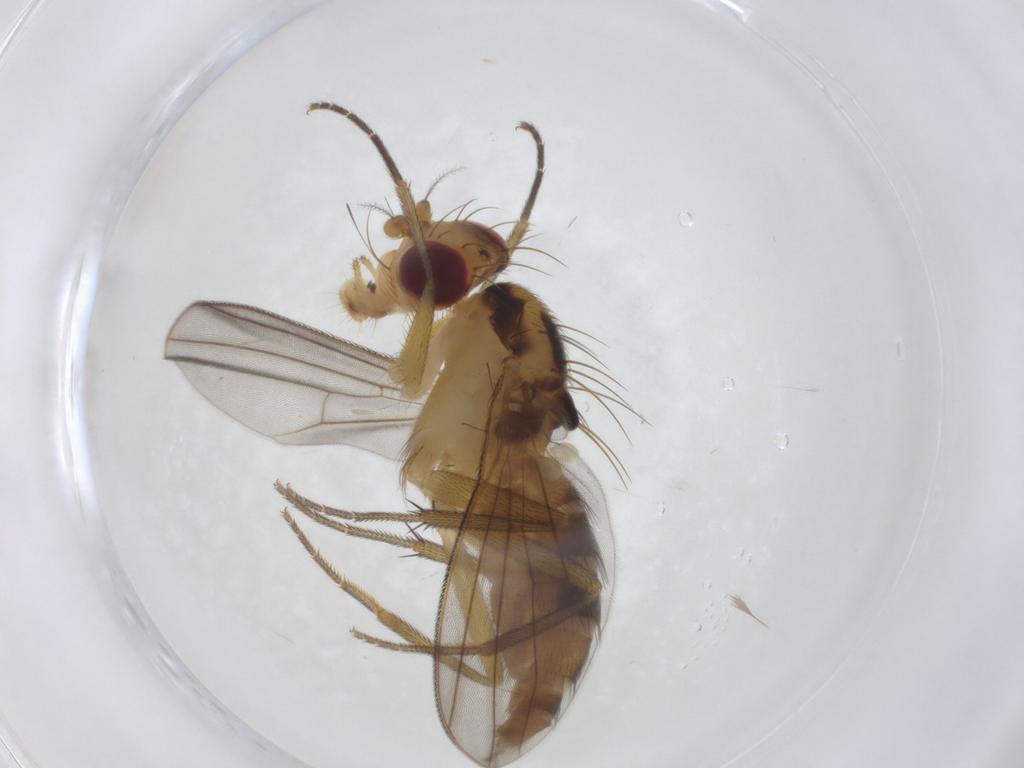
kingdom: Animalia
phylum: Arthropoda
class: Insecta
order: Diptera
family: Clusiidae
